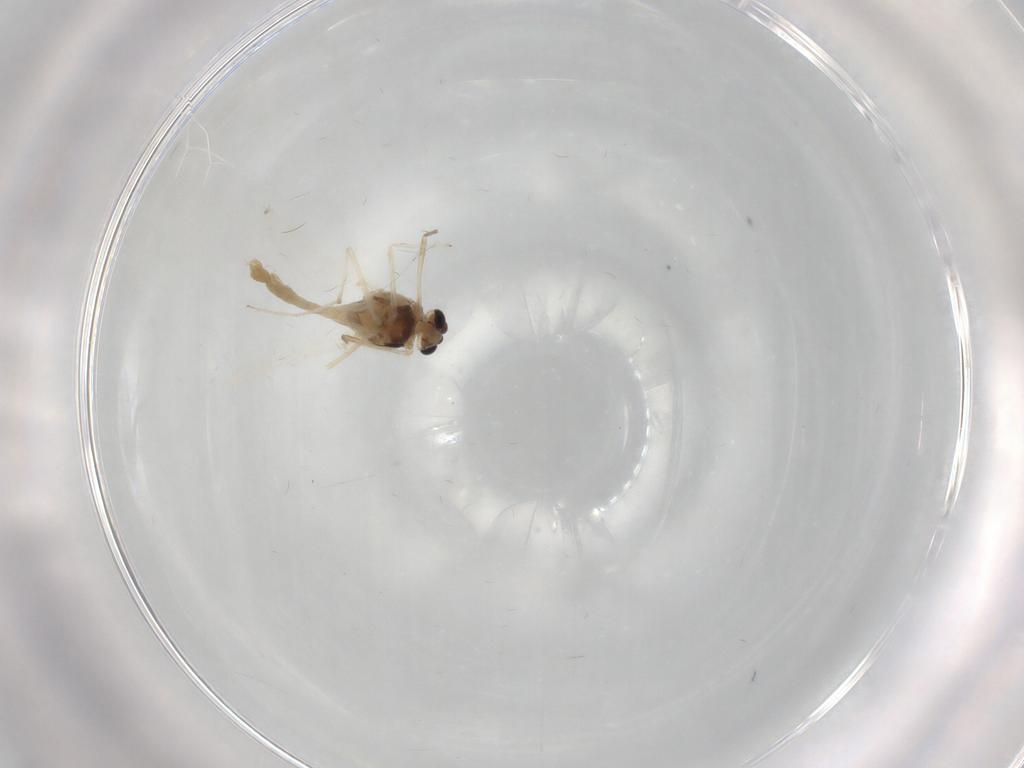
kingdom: Animalia
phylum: Arthropoda
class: Insecta
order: Diptera
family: Chironomidae
